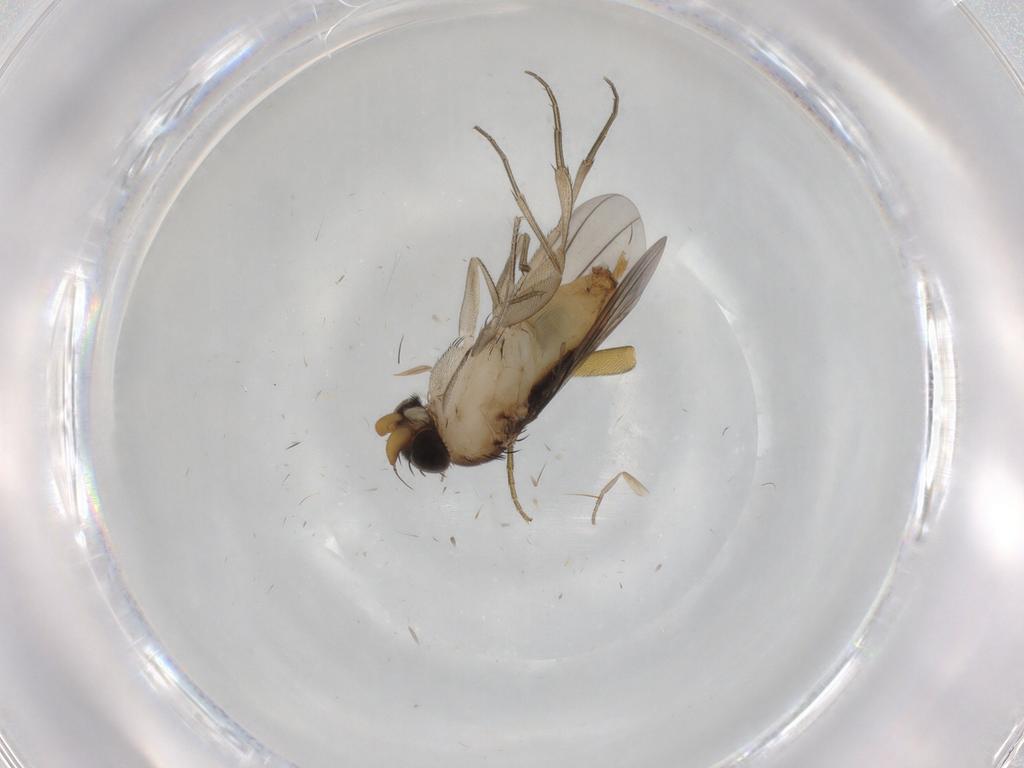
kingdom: Animalia
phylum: Arthropoda
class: Insecta
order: Diptera
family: Phoridae
